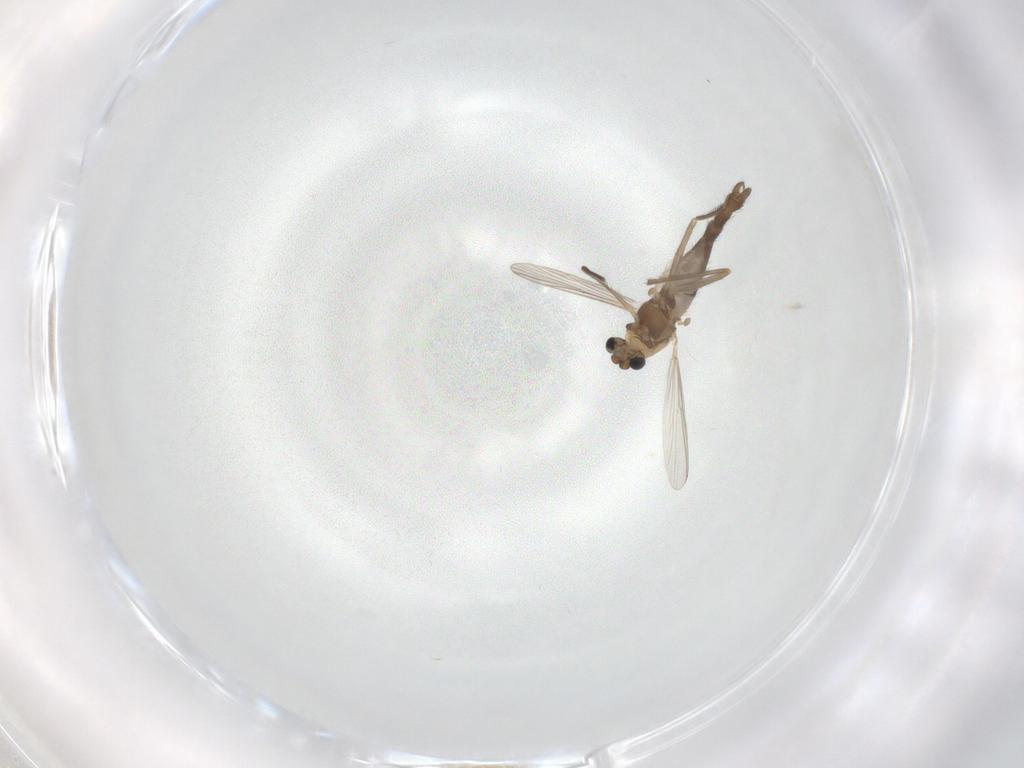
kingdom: Animalia
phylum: Arthropoda
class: Insecta
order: Diptera
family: Chironomidae
